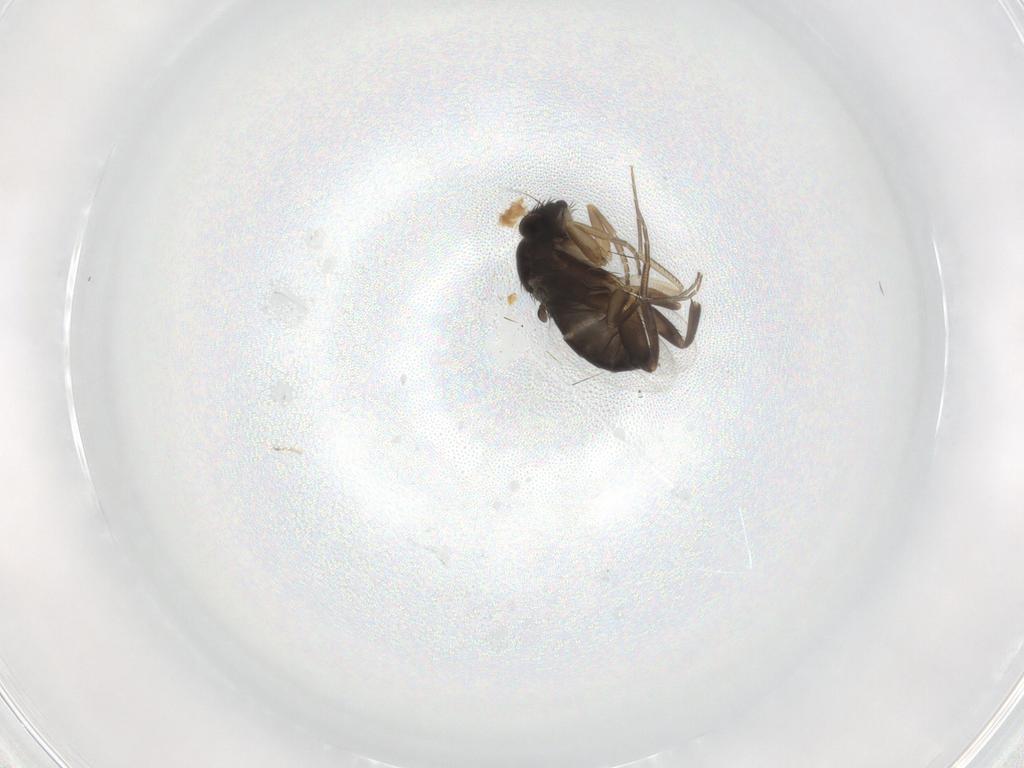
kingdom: Animalia
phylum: Arthropoda
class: Insecta
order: Diptera
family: Phoridae
